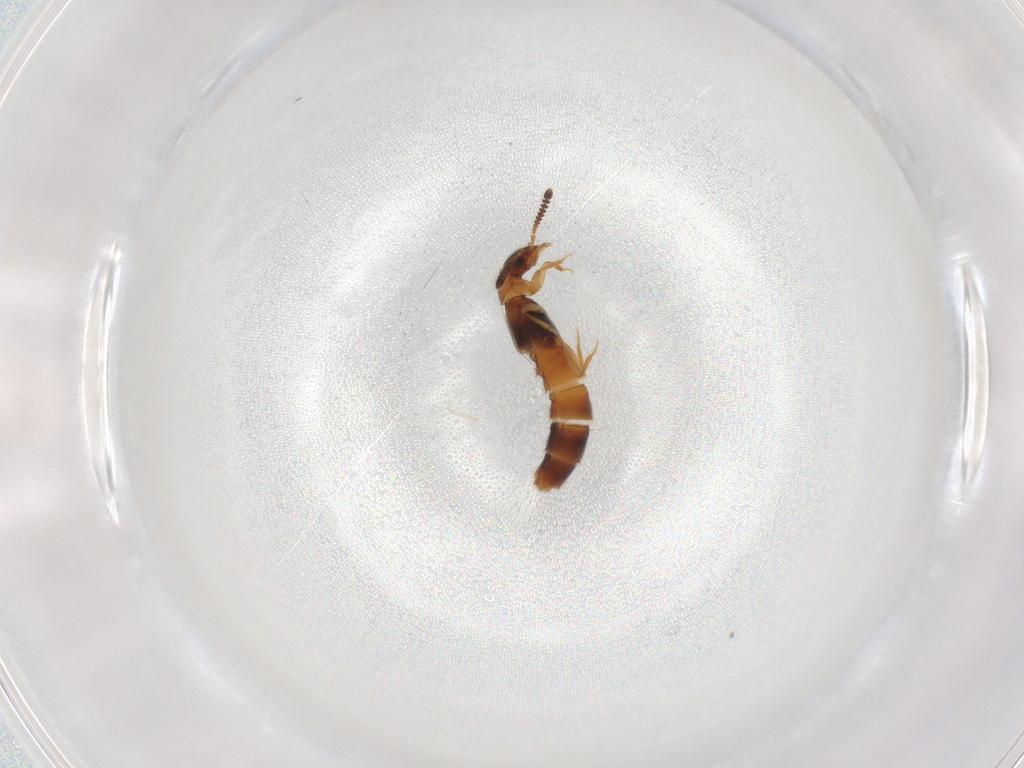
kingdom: Animalia
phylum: Arthropoda
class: Insecta
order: Coleoptera
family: Staphylinidae
